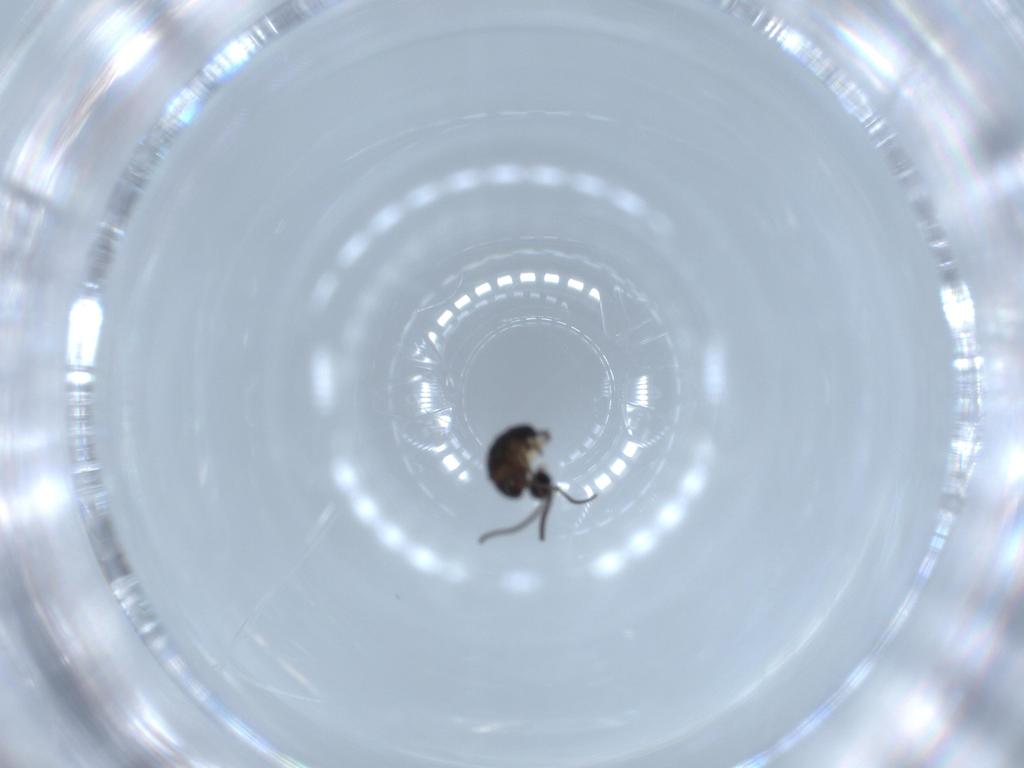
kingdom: Animalia
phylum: Arthropoda
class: Insecta
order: Diptera
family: Sciaridae
